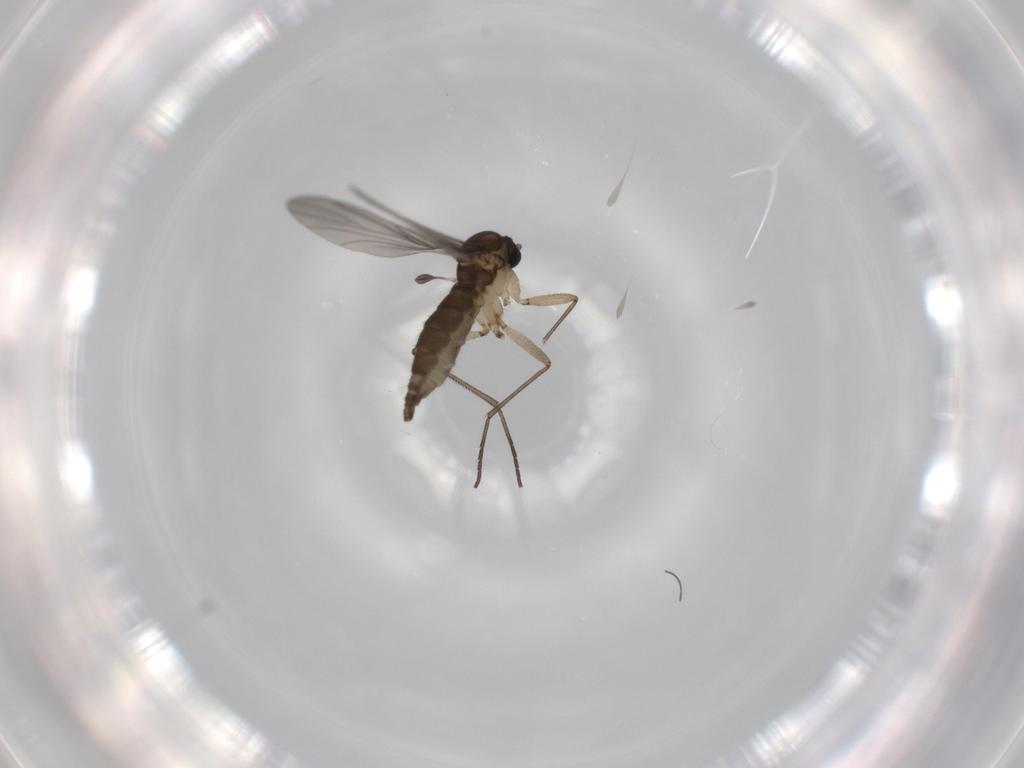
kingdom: Animalia
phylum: Arthropoda
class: Insecta
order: Diptera
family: Sciaridae
